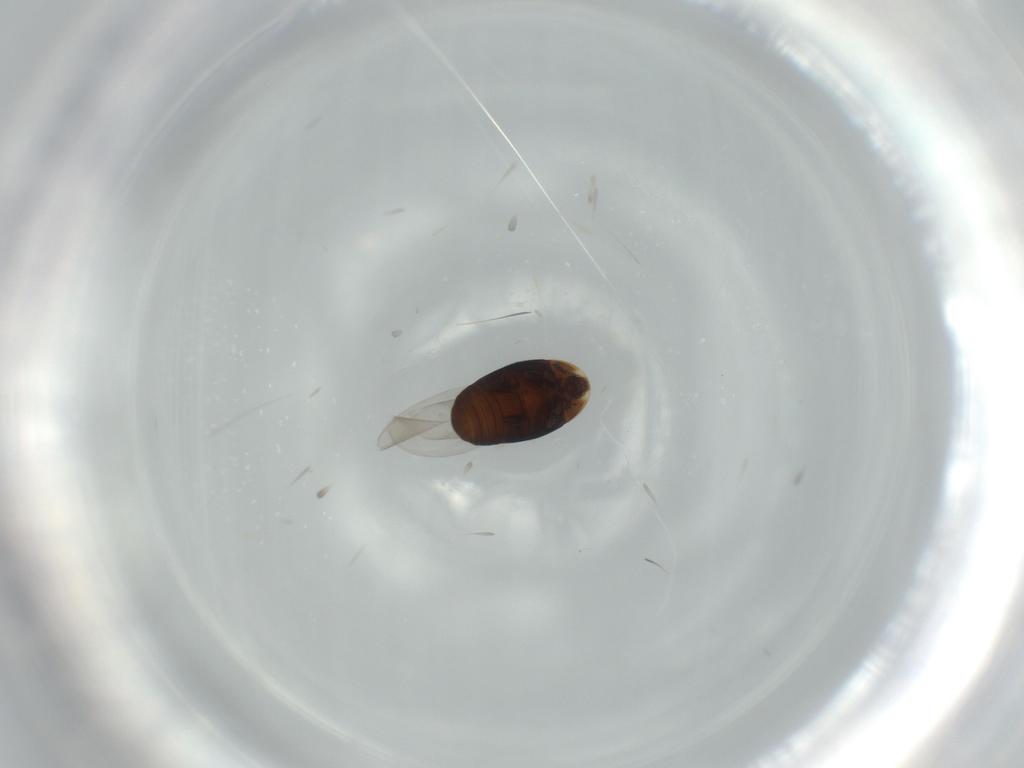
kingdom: Animalia
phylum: Arthropoda
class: Insecta
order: Coleoptera
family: Corylophidae
